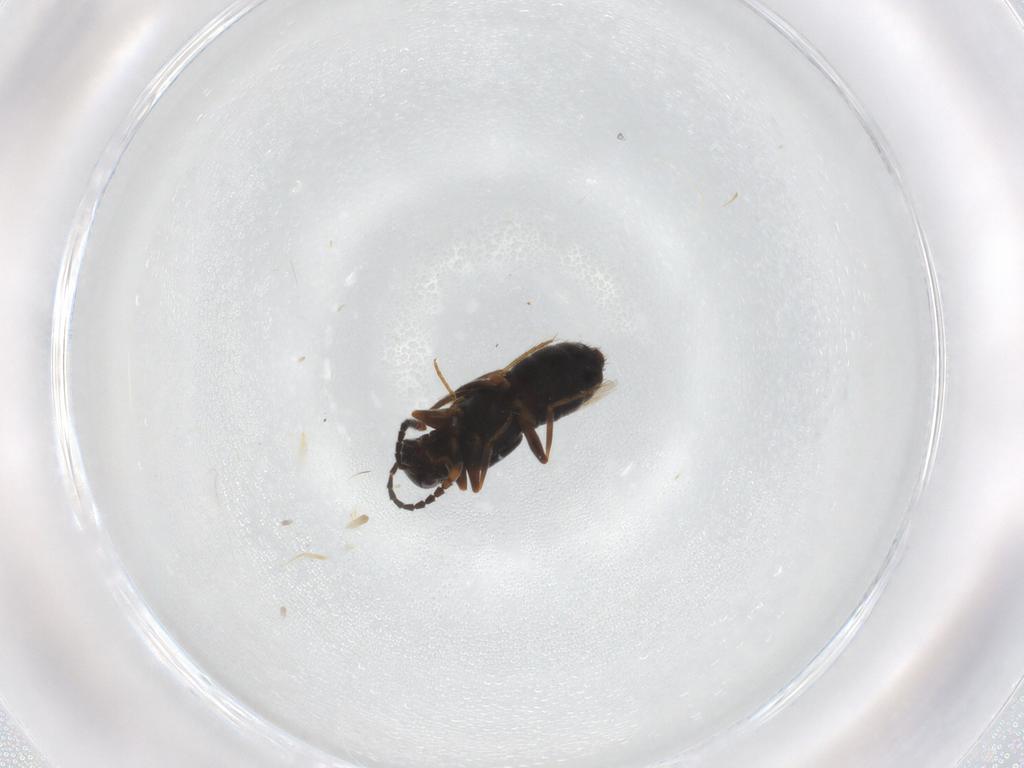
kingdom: Animalia
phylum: Arthropoda
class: Insecta
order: Coleoptera
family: Staphylinidae
